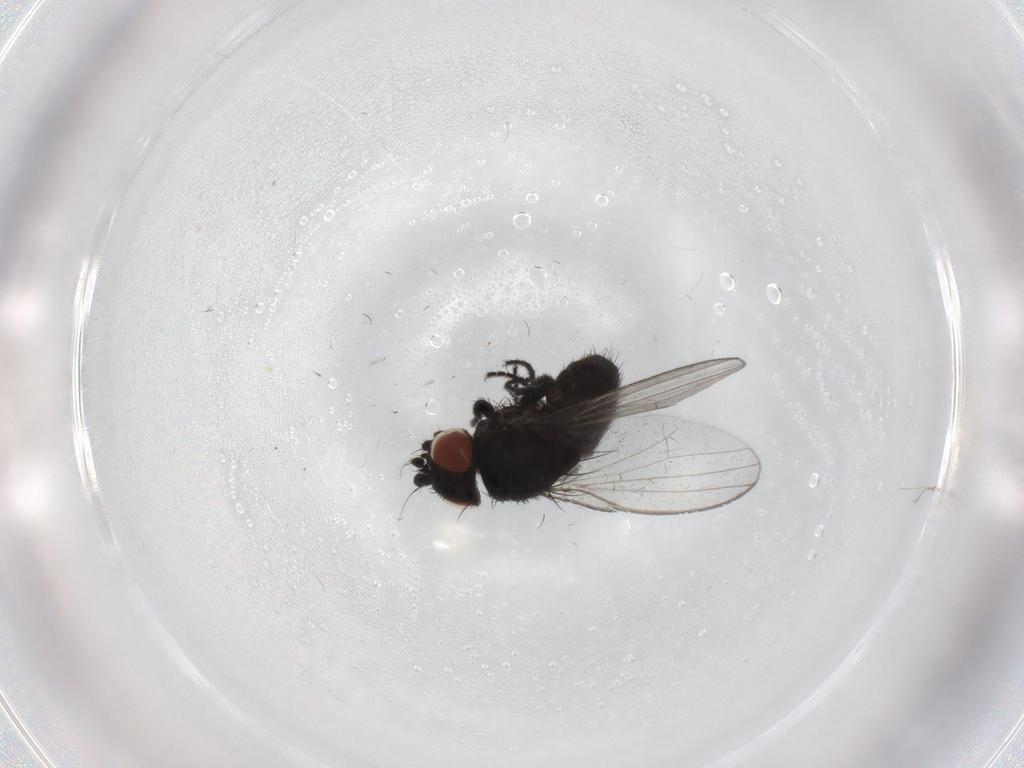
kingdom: Animalia
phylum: Arthropoda
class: Insecta
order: Diptera
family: Milichiidae
